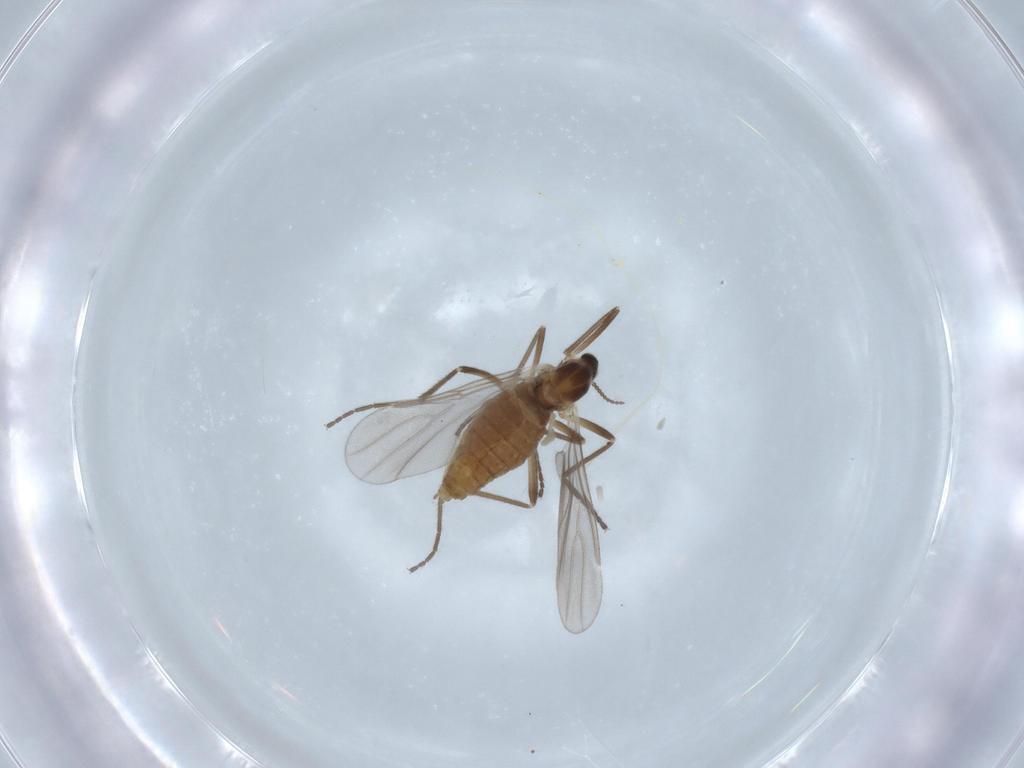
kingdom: Animalia
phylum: Arthropoda
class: Insecta
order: Diptera
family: Cecidomyiidae
